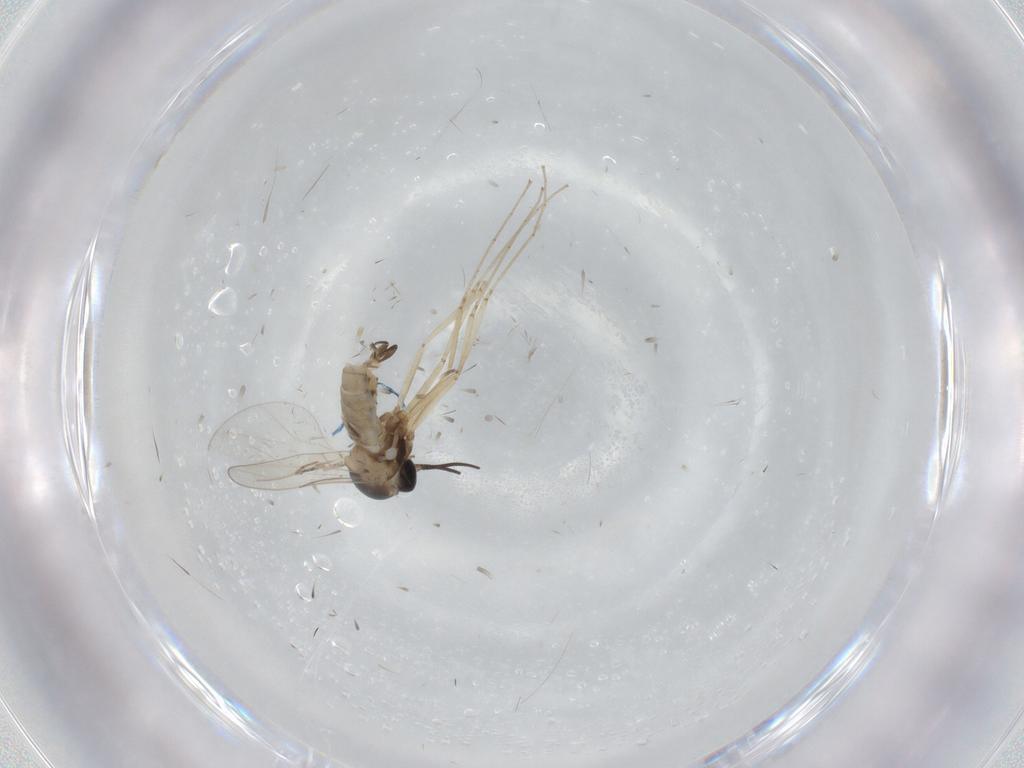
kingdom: Animalia
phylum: Arthropoda
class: Insecta
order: Diptera
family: Cecidomyiidae
